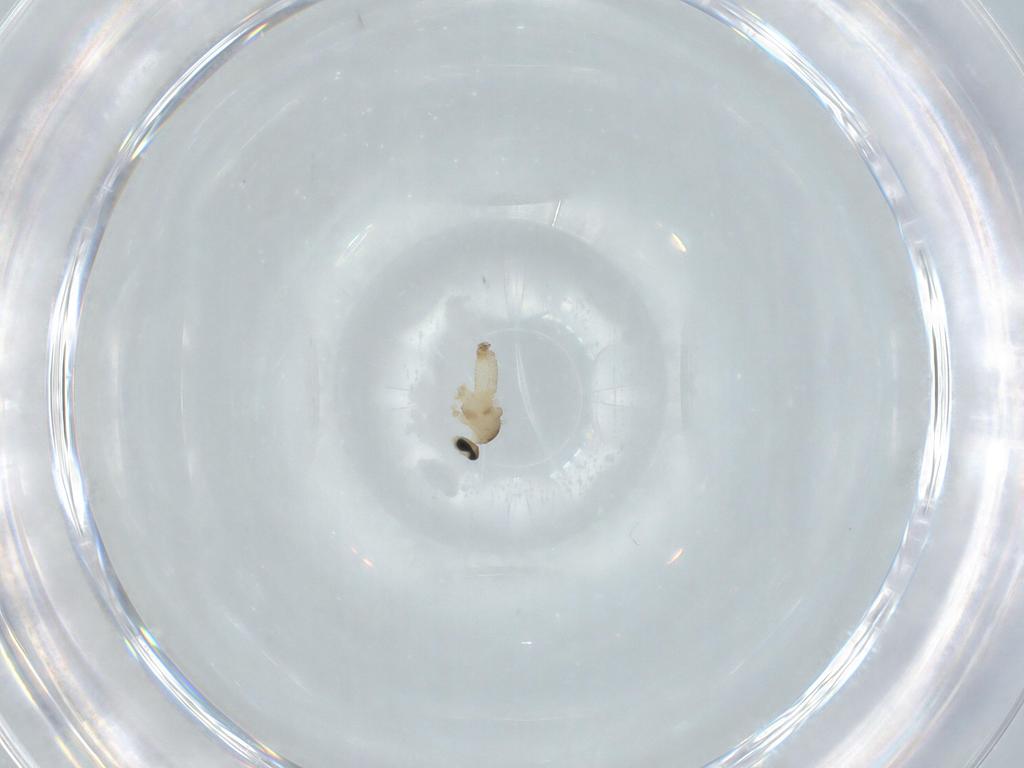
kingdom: Animalia
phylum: Arthropoda
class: Insecta
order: Diptera
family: Cecidomyiidae
